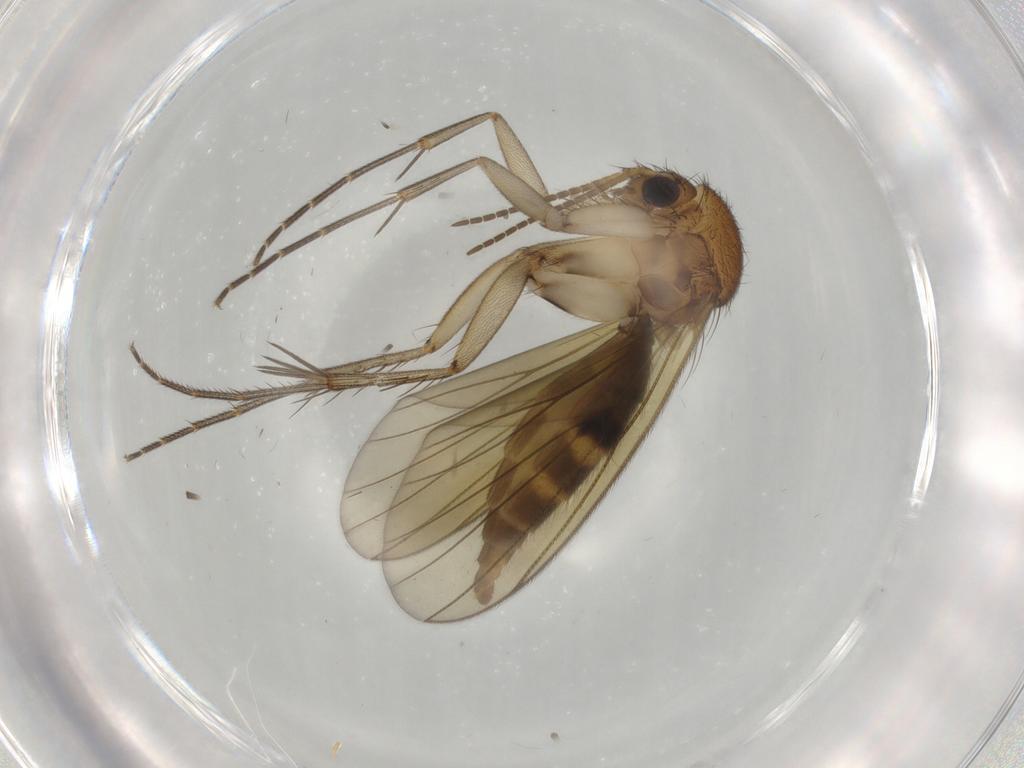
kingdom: Animalia
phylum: Arthropoda
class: Insecta
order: Diptera
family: Mycetophilidae
